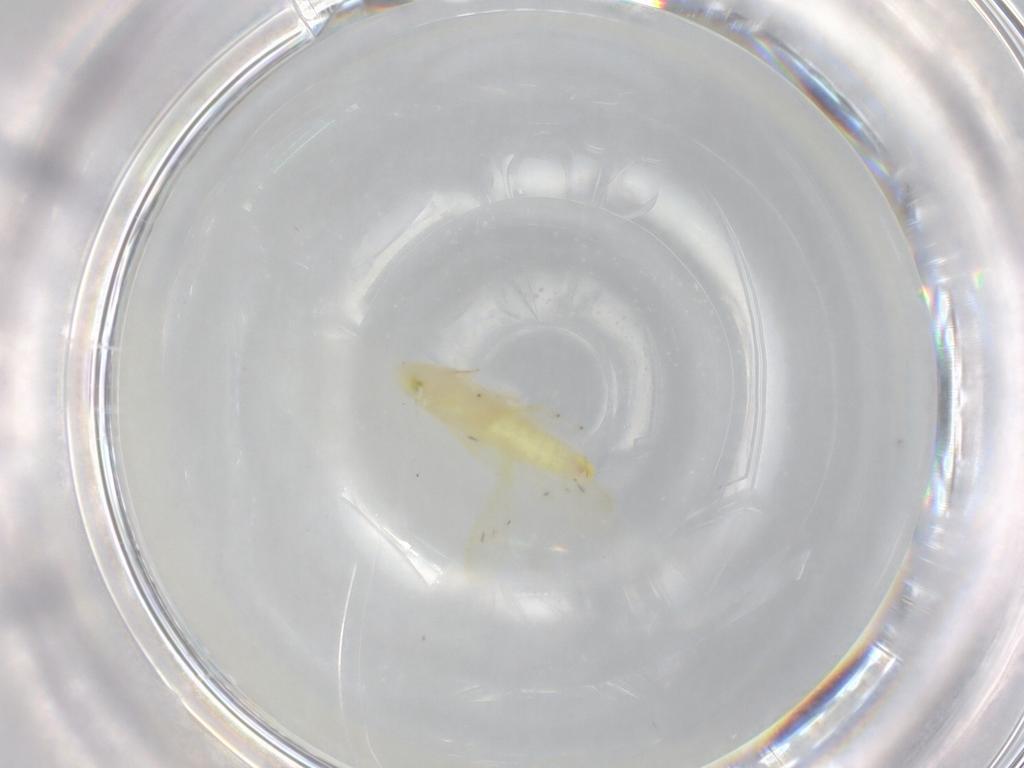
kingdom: Animalia
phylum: Arthropoda
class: Insecta
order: Hemiptera
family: Cicadellidae
